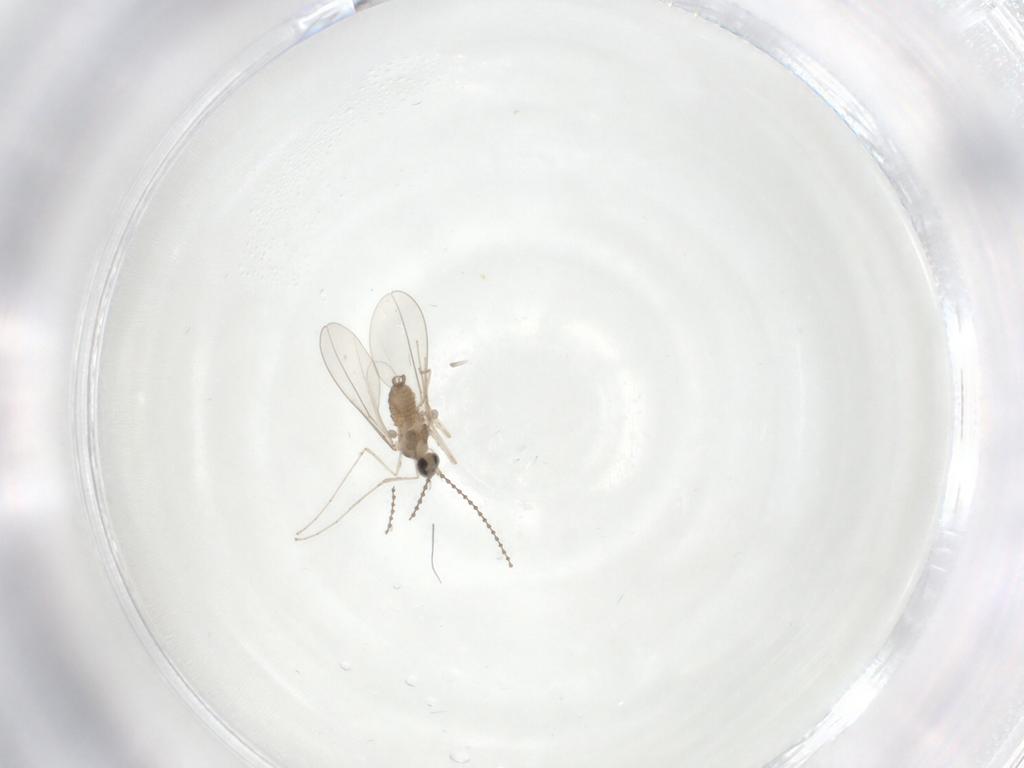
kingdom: Animalia
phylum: Arthropoda
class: Insecta
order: Diptera
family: Cecidomyiidae
